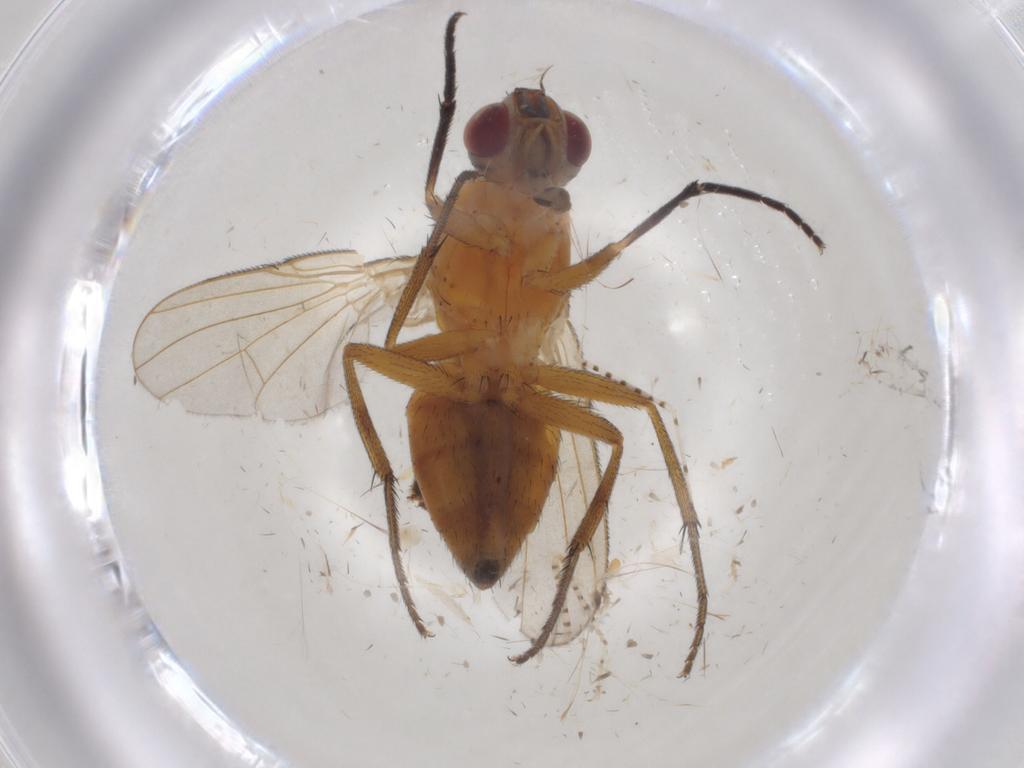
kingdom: Animalia
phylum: Arthropoda
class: Insecta
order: Diptera
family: Muscidae
